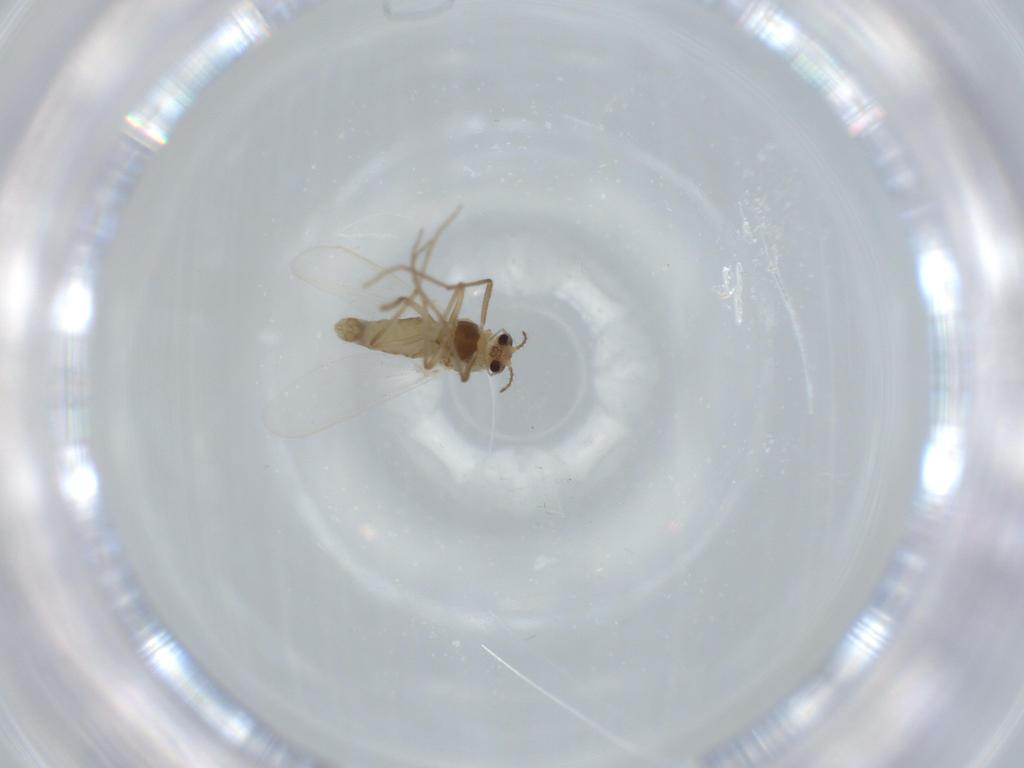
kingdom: Animalia
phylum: Arthropoda
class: Insecta
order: Diptera
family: Chironomidae
